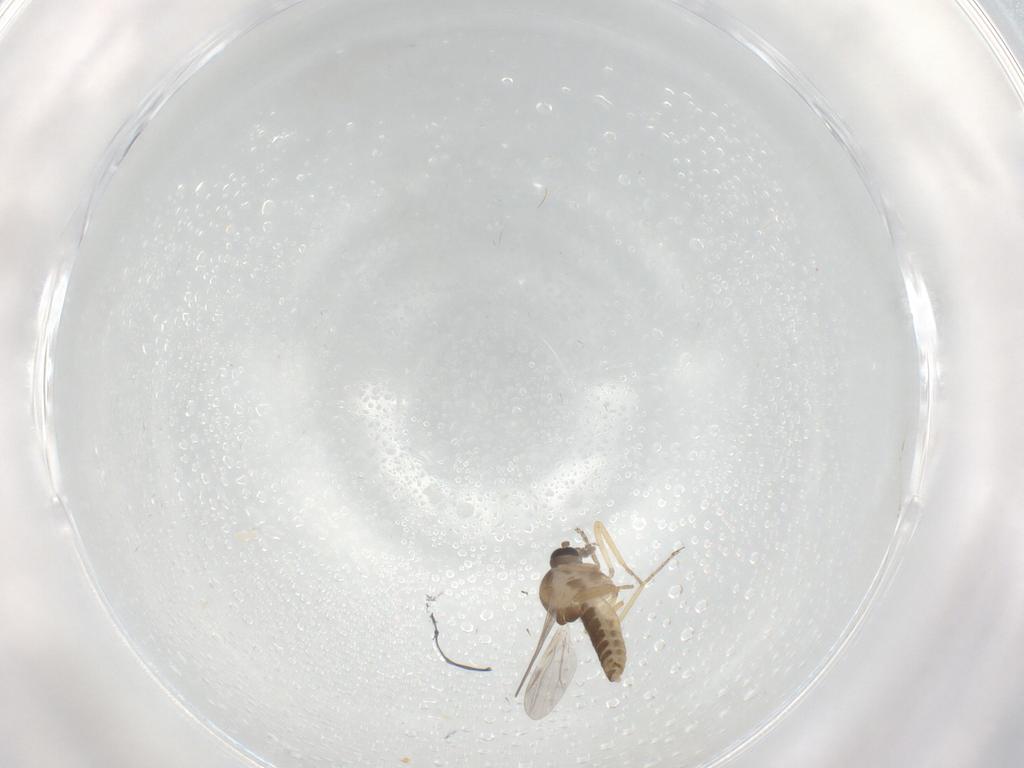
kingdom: Animalia
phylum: Arthropoda
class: Insecta
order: Diptera
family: Ceratopogonidae
